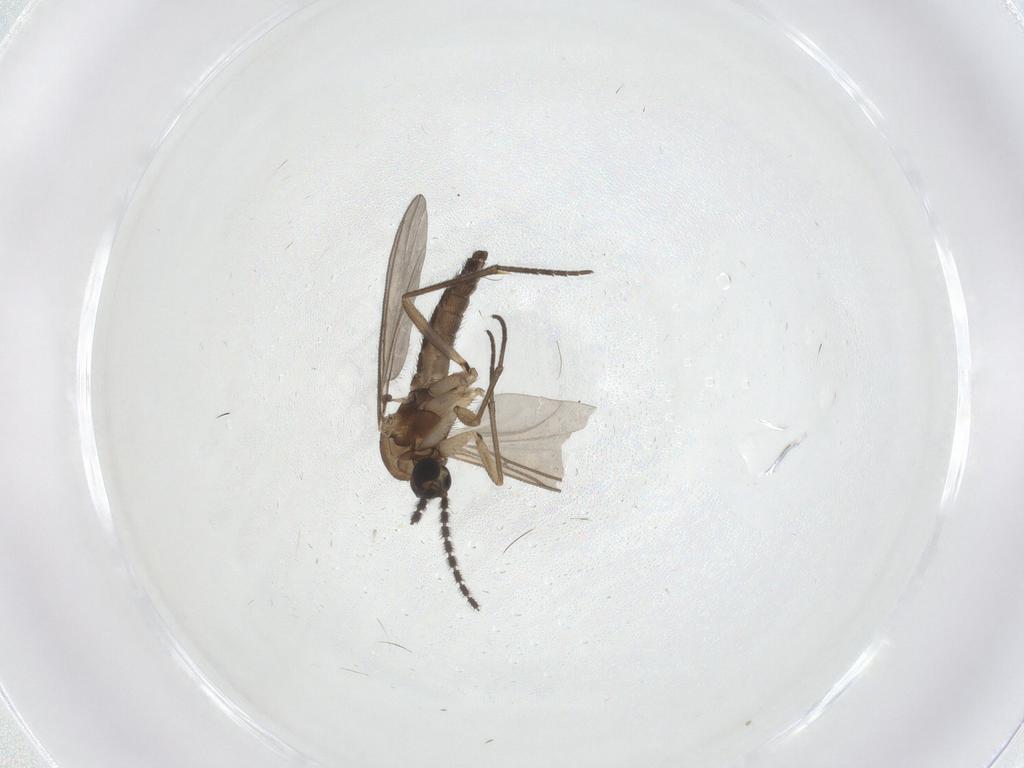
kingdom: Animalia
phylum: Arthropoda
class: Insecta
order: Diptera
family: Sciaridae
